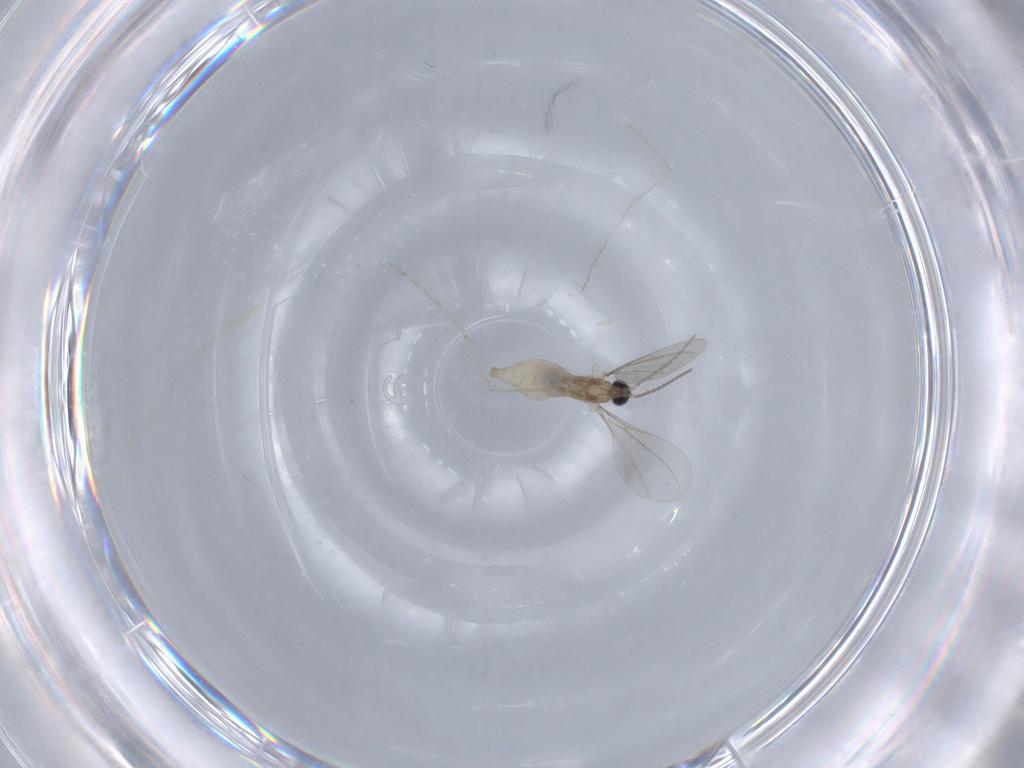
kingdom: Animalia
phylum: Arthropoda
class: Insecta
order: Diptera
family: Cecidomyiidae
